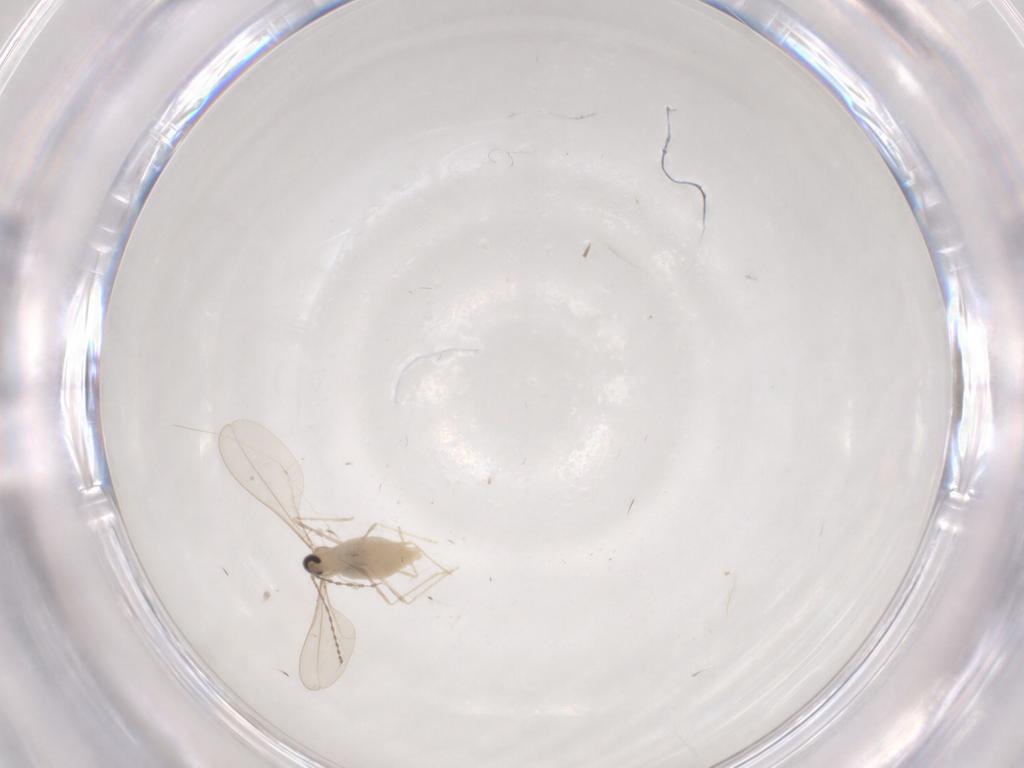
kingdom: Animalia
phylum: Arthropoda
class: Insecta
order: Diptera
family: Cecidomyiidae
